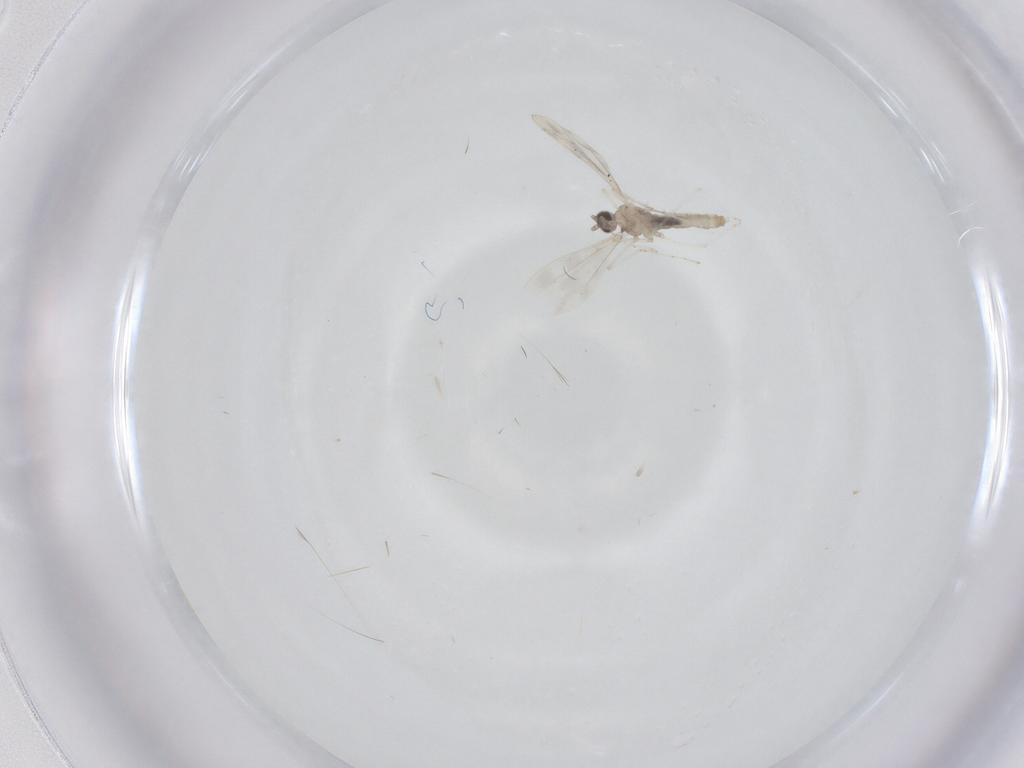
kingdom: Animalia
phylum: Arthropoda
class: Insecta
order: Diptera
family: Cecidomyiidae
